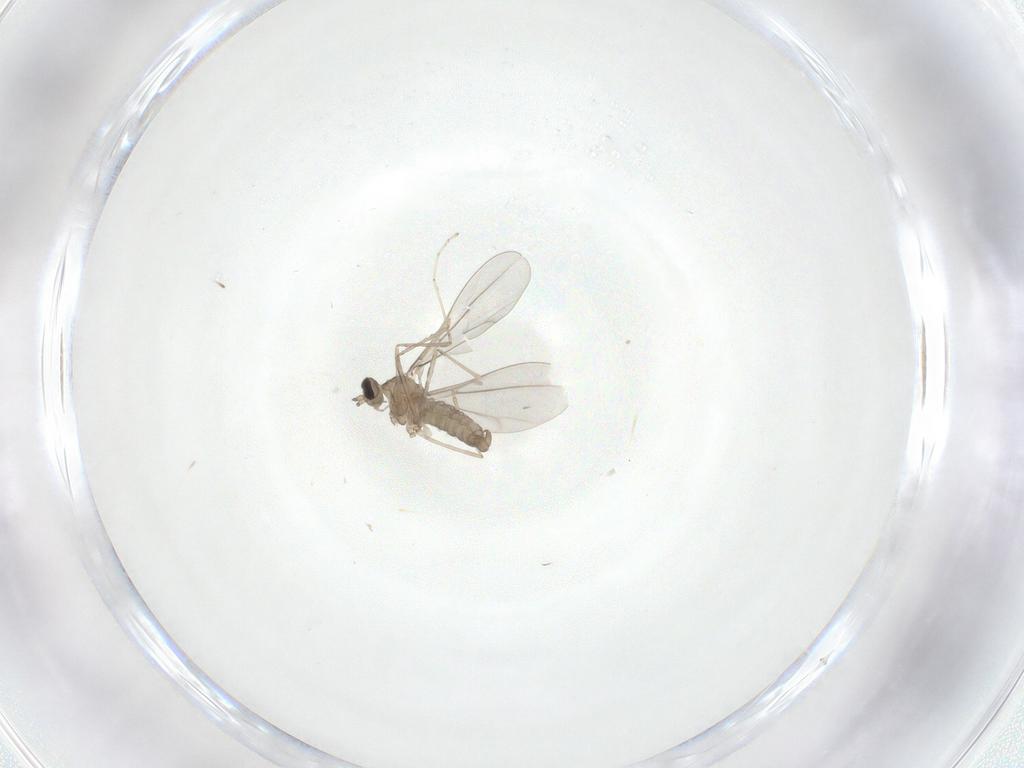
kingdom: Animalia
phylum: Arthropoda
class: Insecta
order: Diptera
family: Cecidomyiidae
